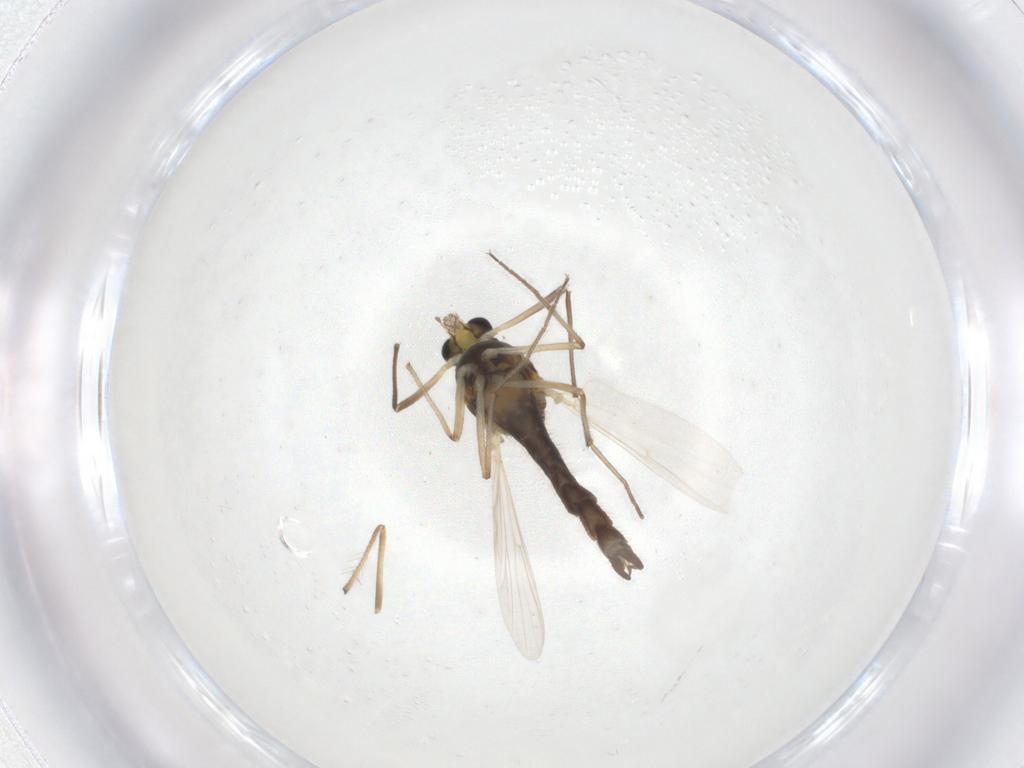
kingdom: Animalia
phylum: Arthropoda
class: Insecta
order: Diptera
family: Chironomidae
